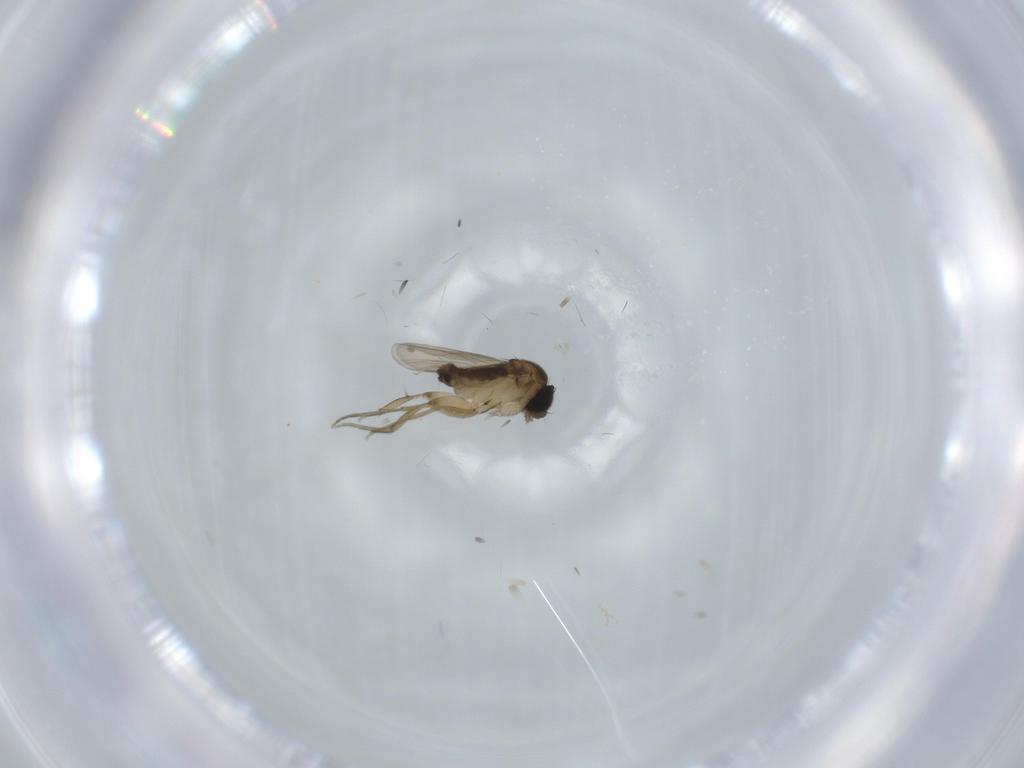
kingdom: Animalia
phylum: Arthropoda
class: Insecta
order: Diptera
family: Phoridae
